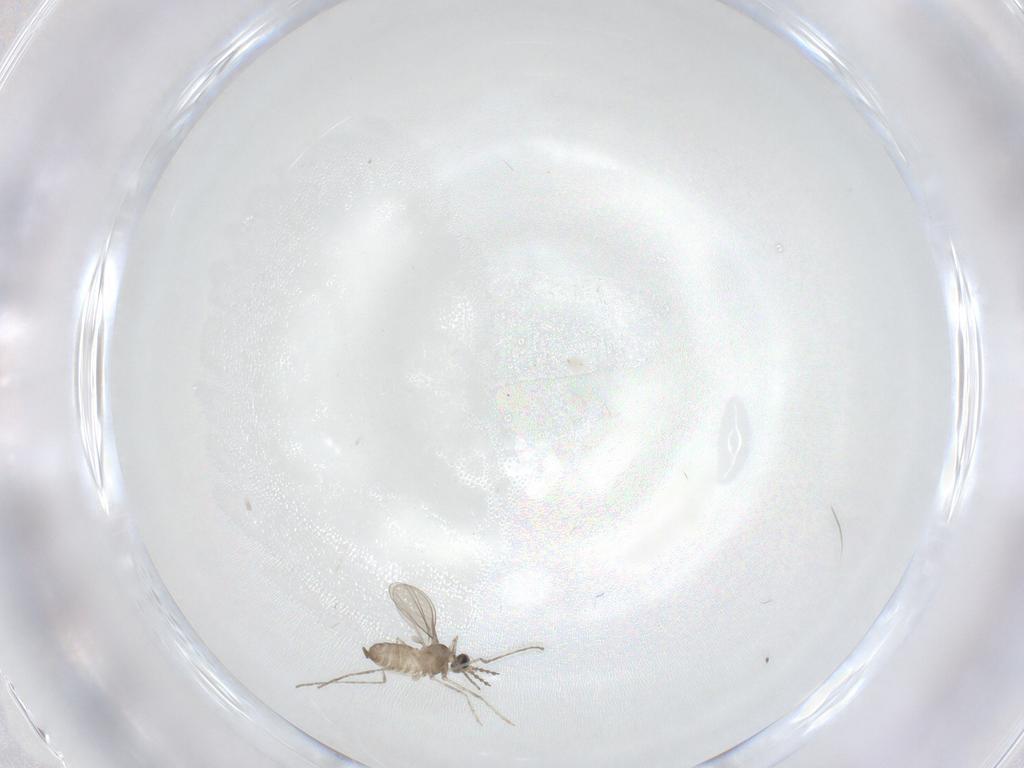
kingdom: Animalia
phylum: Arthropoda
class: Insecta
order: Diptera
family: Cecidomyiidae
